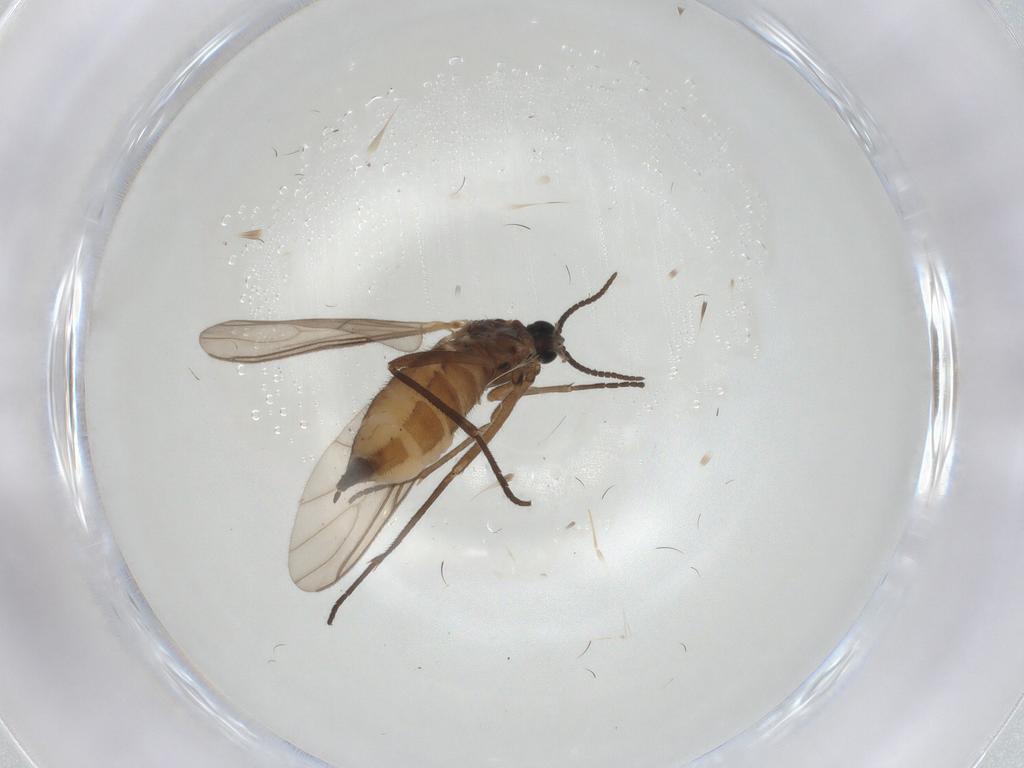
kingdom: Animalia
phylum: Arthropoda
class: Insecta
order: Diptera
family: Sciaridae
